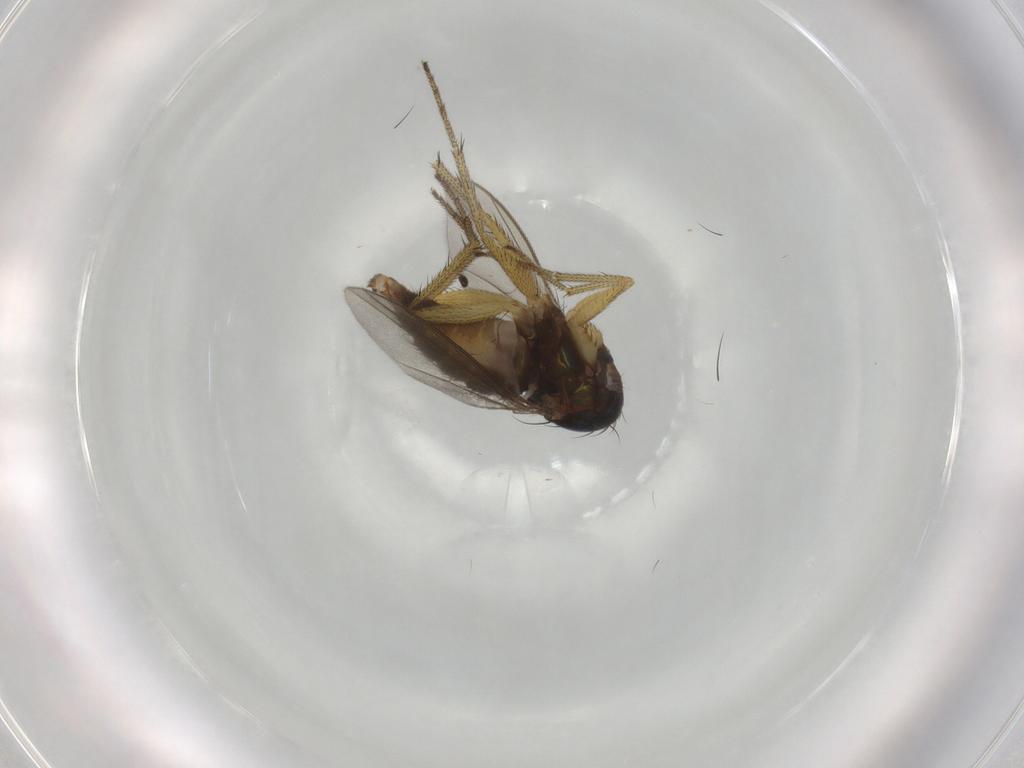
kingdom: Animalia
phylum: Arthropoda
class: Insecta
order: Diptera
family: Dolichopodidae
